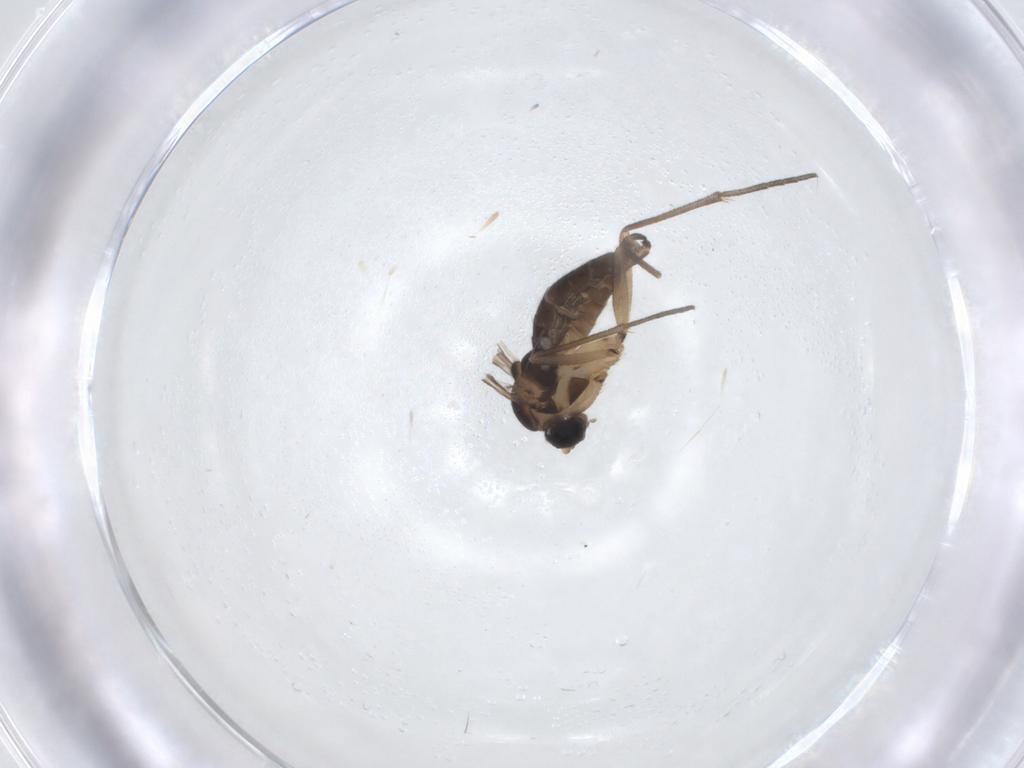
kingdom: Animalia
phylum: Arthropoda
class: Insecta
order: Diptera
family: Sciaridae
